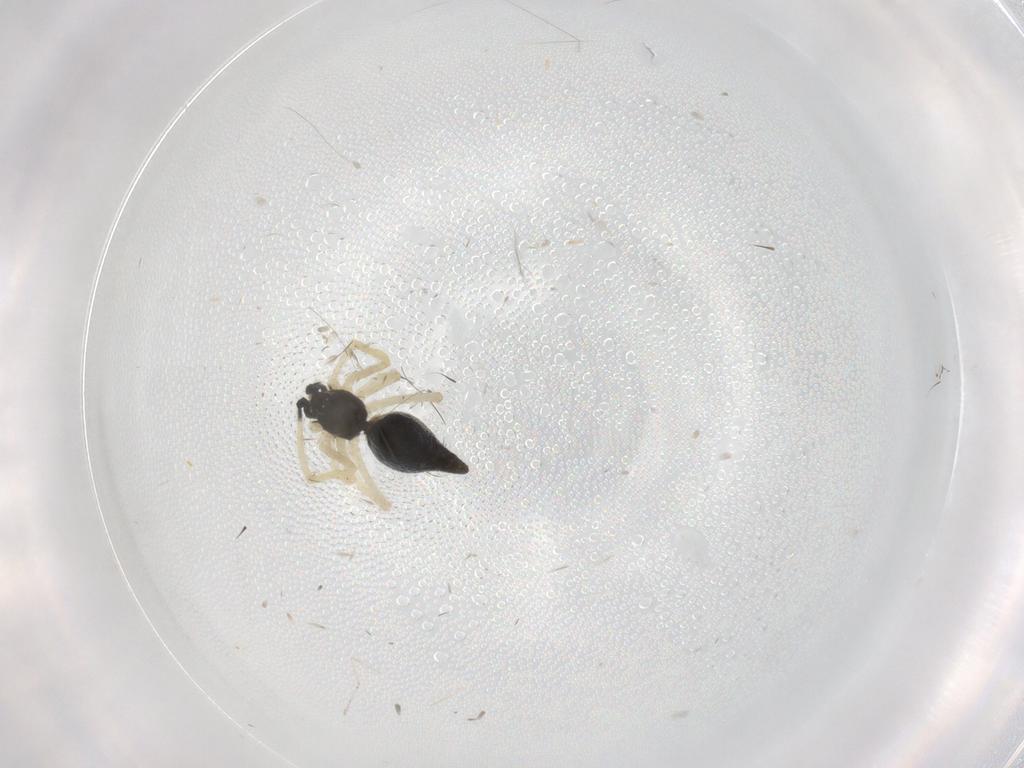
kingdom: Animalia
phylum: Arthropoda
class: Arachnida
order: Araneae
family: Theridiidae
